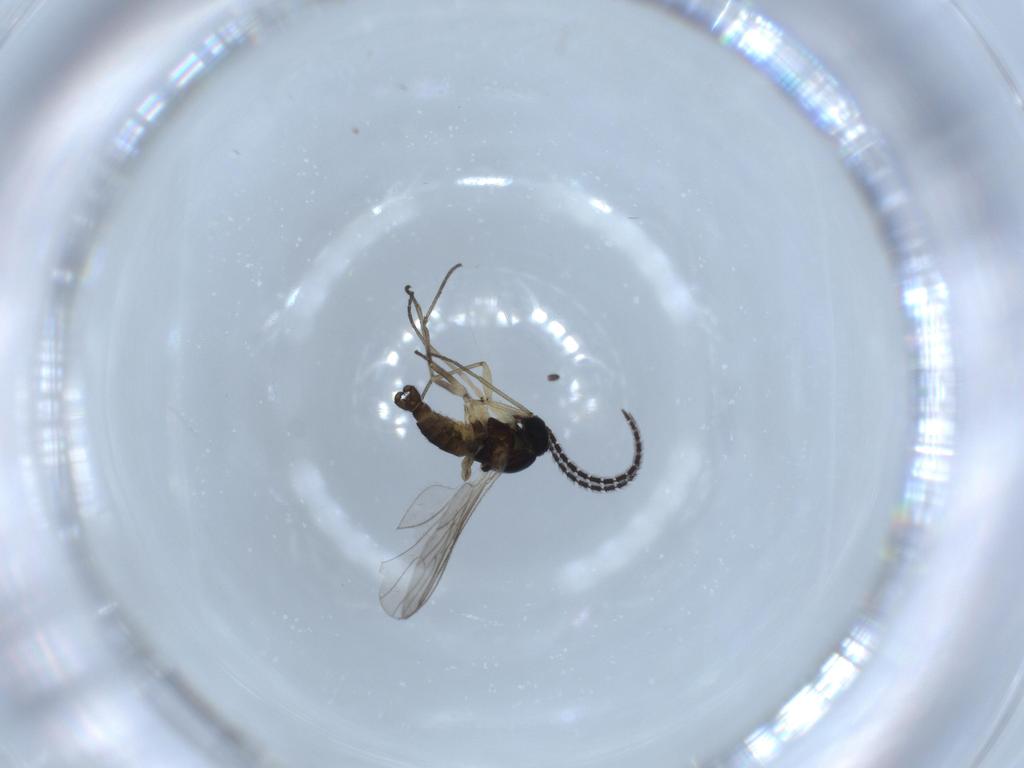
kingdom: Animalia
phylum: Arthropoda
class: Insecta
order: Diptera
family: Sciaridae
